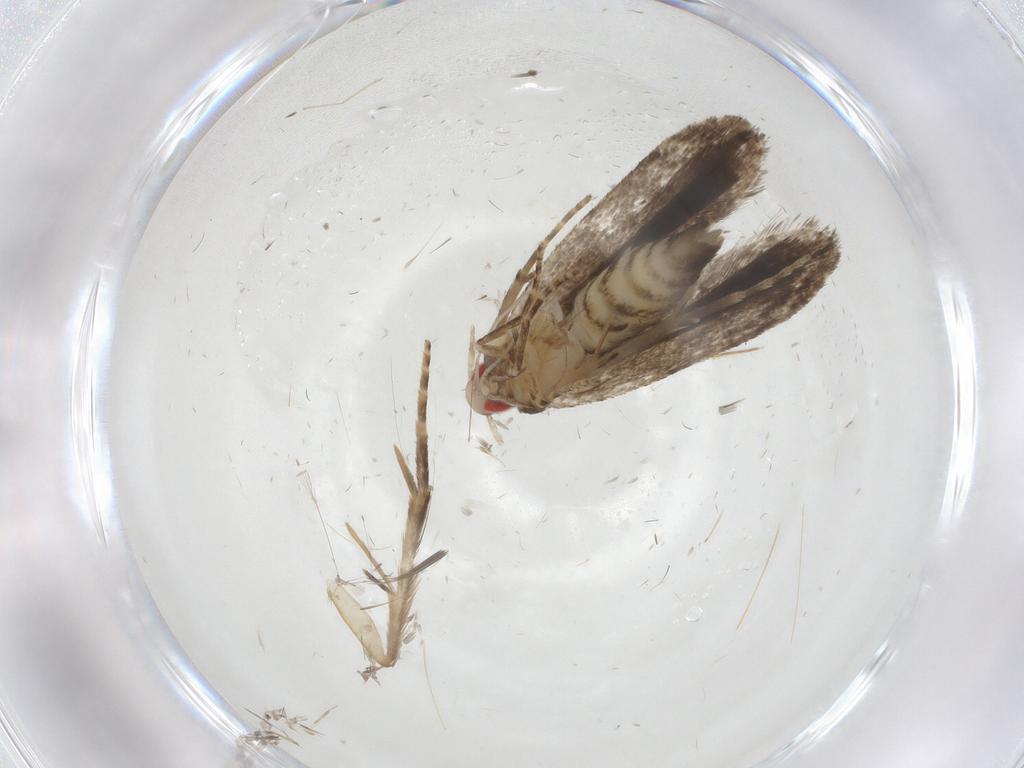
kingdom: Animalia
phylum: Arthropoda
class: Insecta
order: Lepidoptera
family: Gelechiidae
